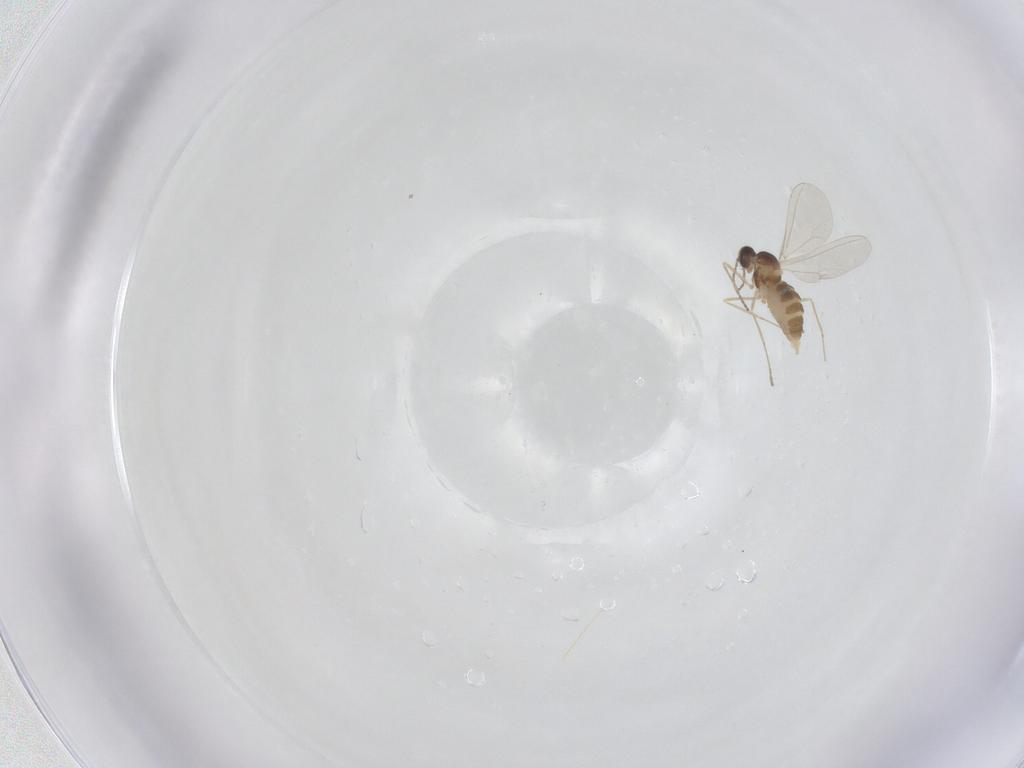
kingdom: Animalia
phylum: Arthropoda
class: Insecta
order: Diptera
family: Cecidomyiidae
